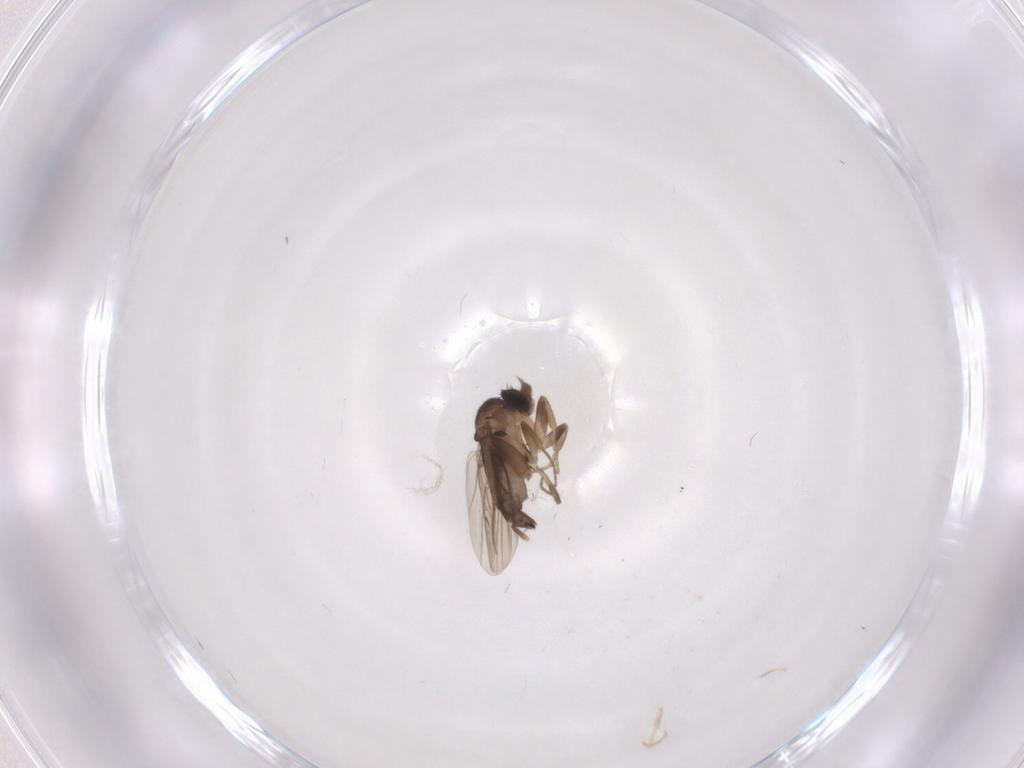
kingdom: Animalia
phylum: Arthropoda
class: Insecta
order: Diptera
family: Phoridae
